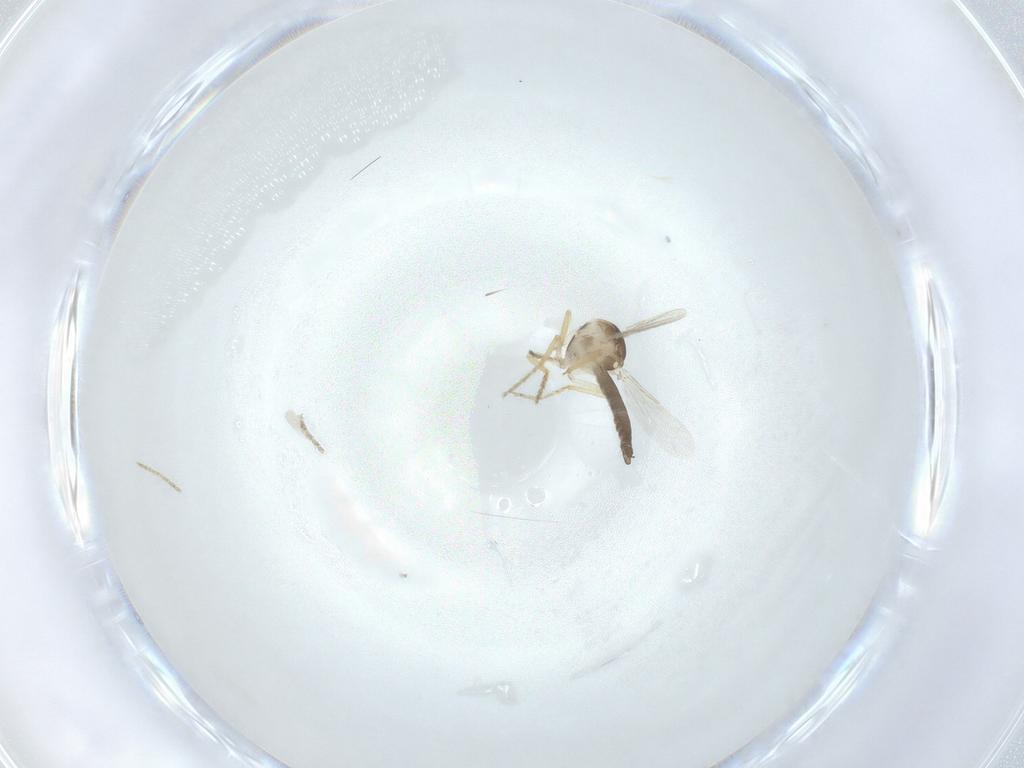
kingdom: Animalia
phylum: Arthropoda
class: Insecta
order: Diptera
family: Ceratopogonidae
